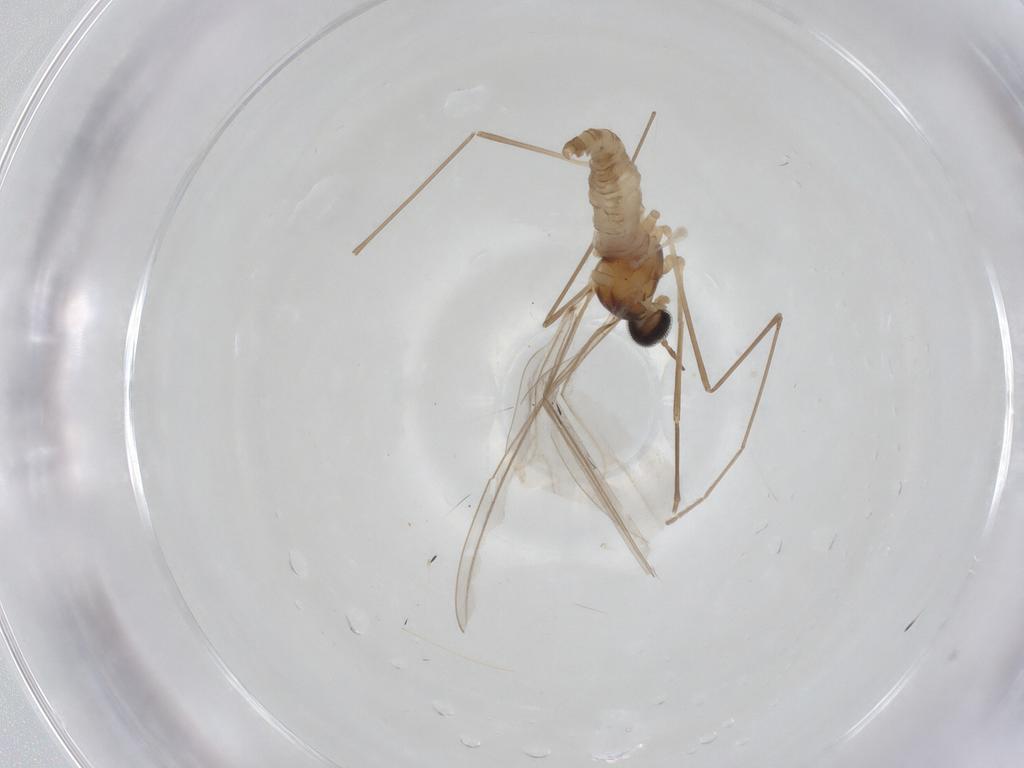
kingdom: Animalia
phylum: Arthropoda
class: Insecta
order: Diptera
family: Cecidomyiidae
